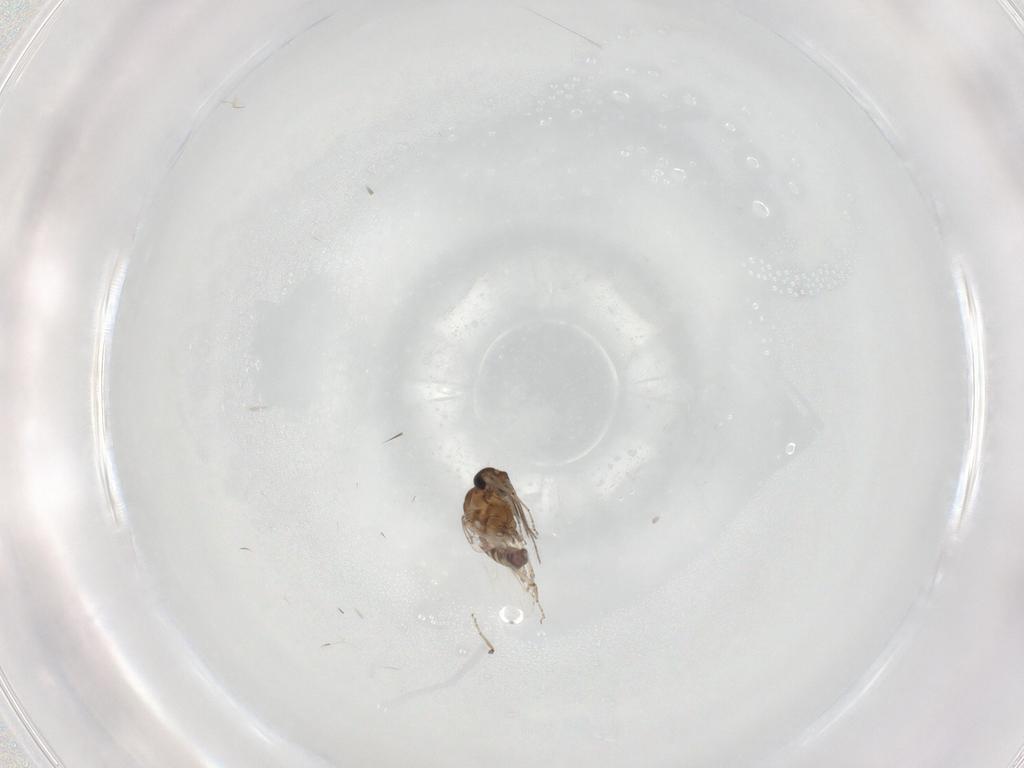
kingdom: Animalia
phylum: Arthropoda
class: Insecta
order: Diptera
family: Ceratopogonidae
